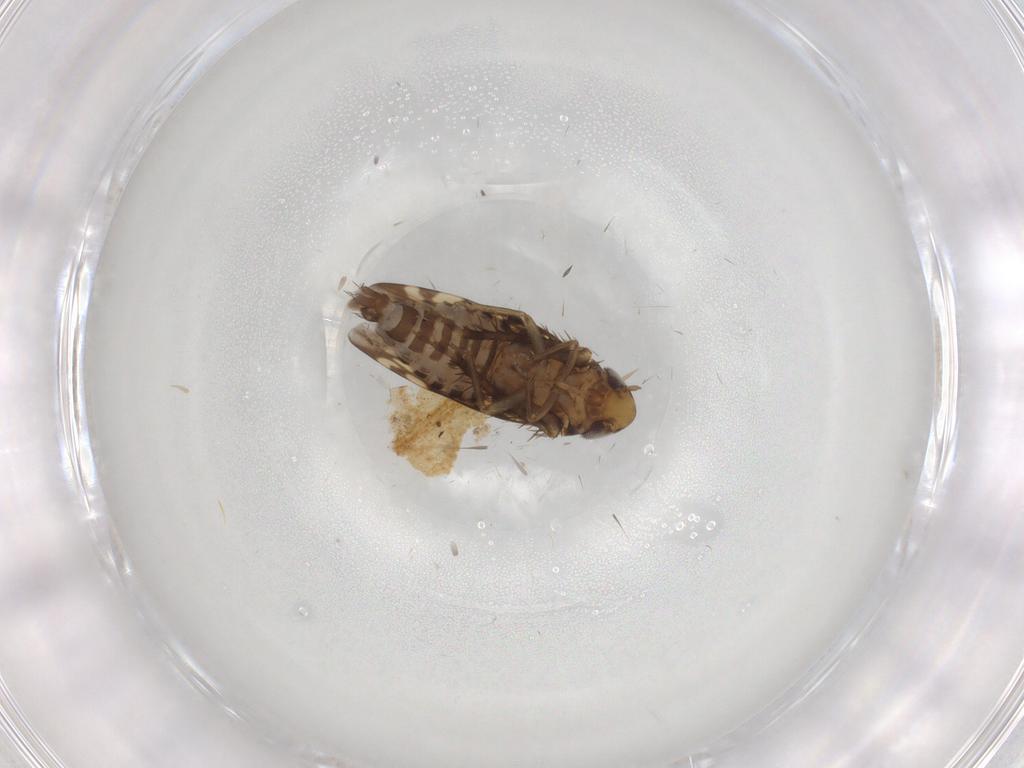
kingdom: Animalia
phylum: Arthropoda
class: Insecta
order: Hemiptera
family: Cicadellidae
